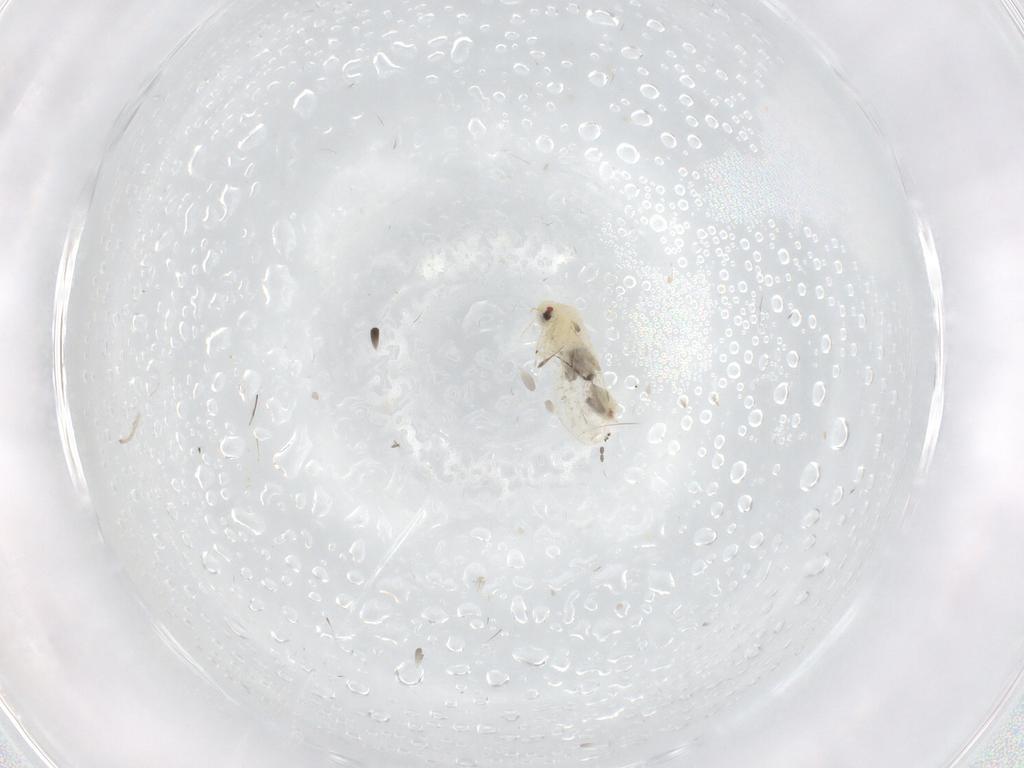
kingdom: Animalia
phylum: Arthropoda
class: Insecta
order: Hemiptera
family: Aleyrodidae
